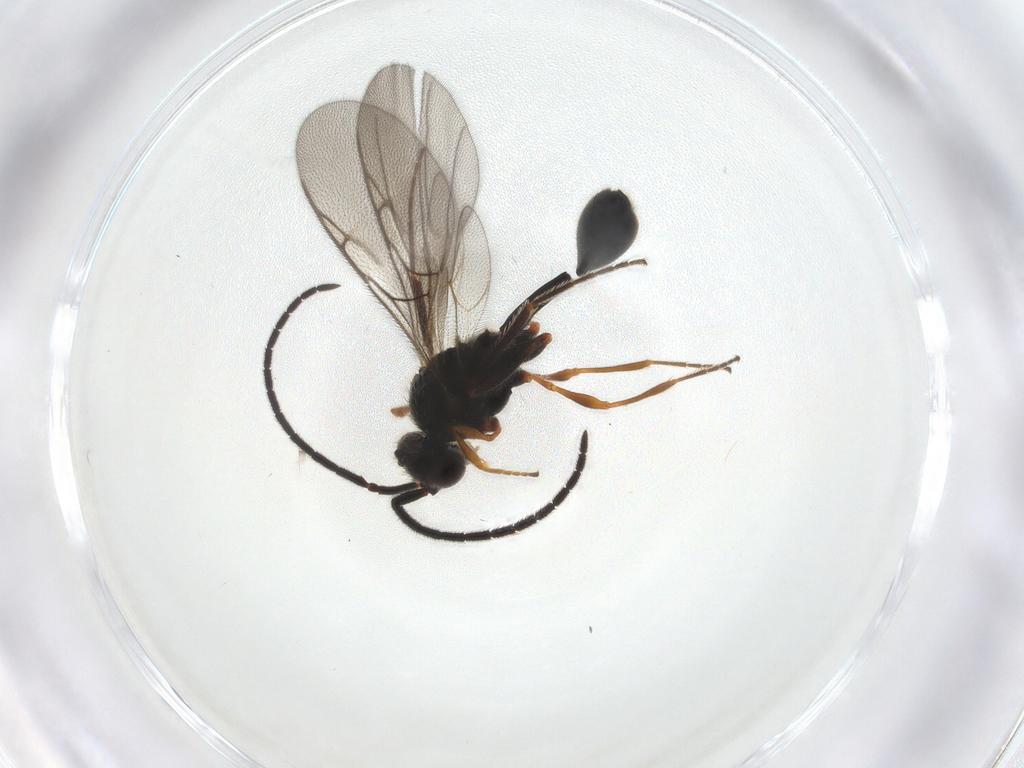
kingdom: Animalia
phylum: Arthropoda
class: Insecta
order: Hymenoptera
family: Diapriidae
